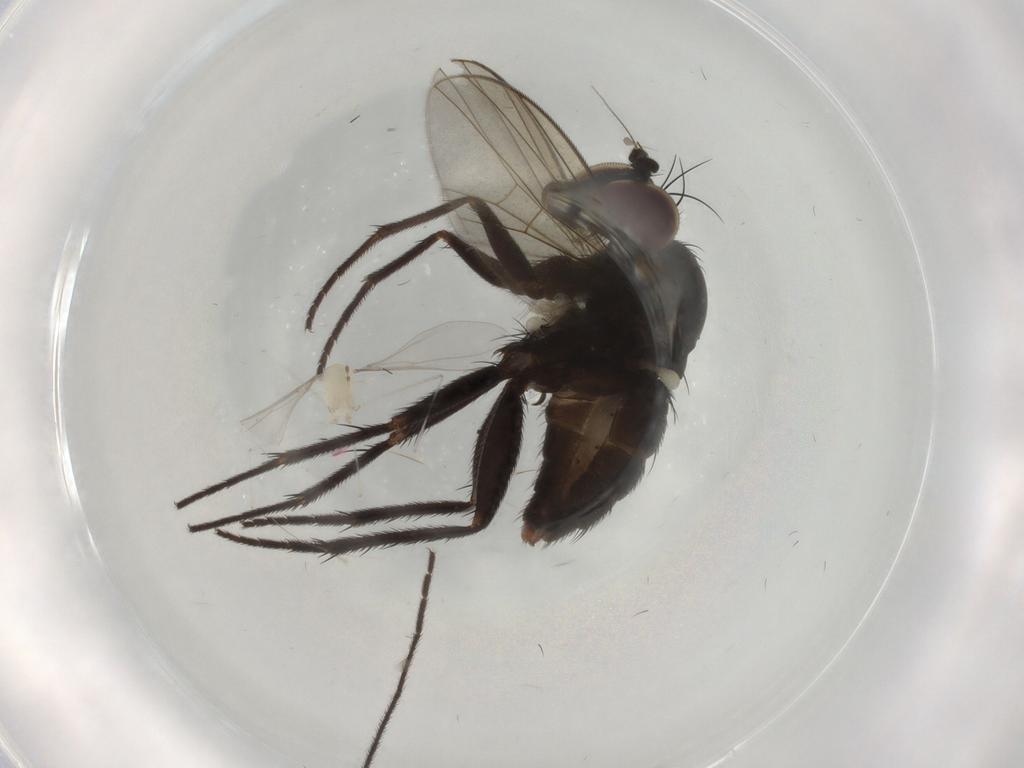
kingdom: Animalia
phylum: Arthropoda
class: Insecta
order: Diptera
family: Dolichopodidae
